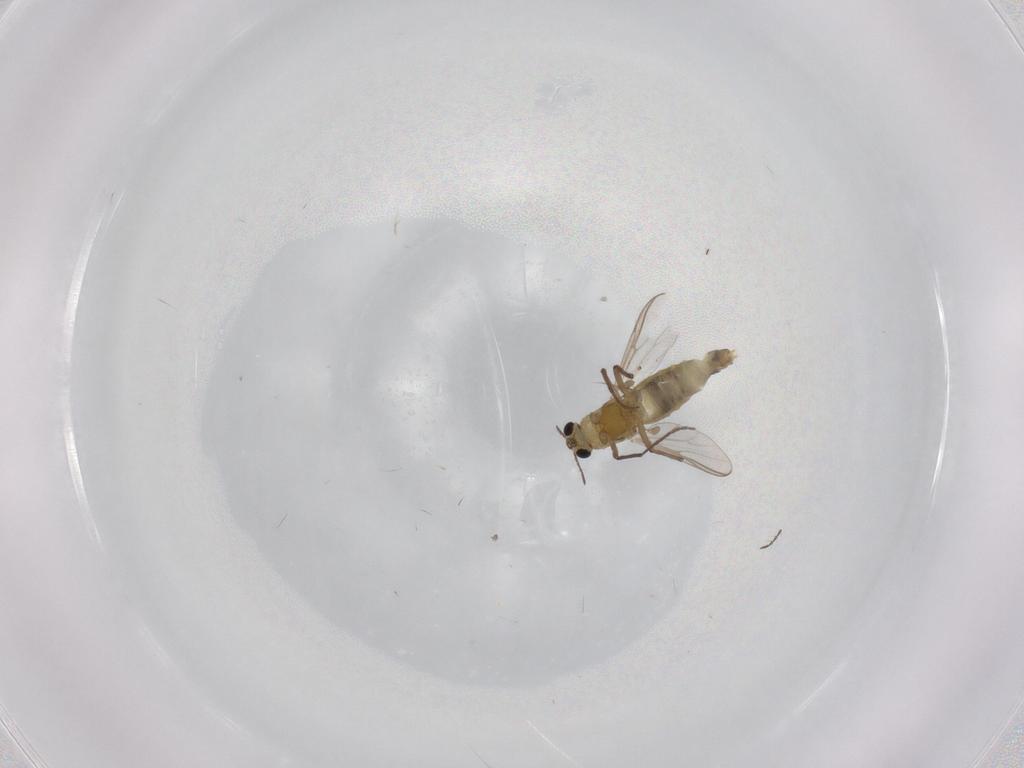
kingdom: Animalia
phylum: Arthropoda
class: Insecta
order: Diptera
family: Chironomidae
